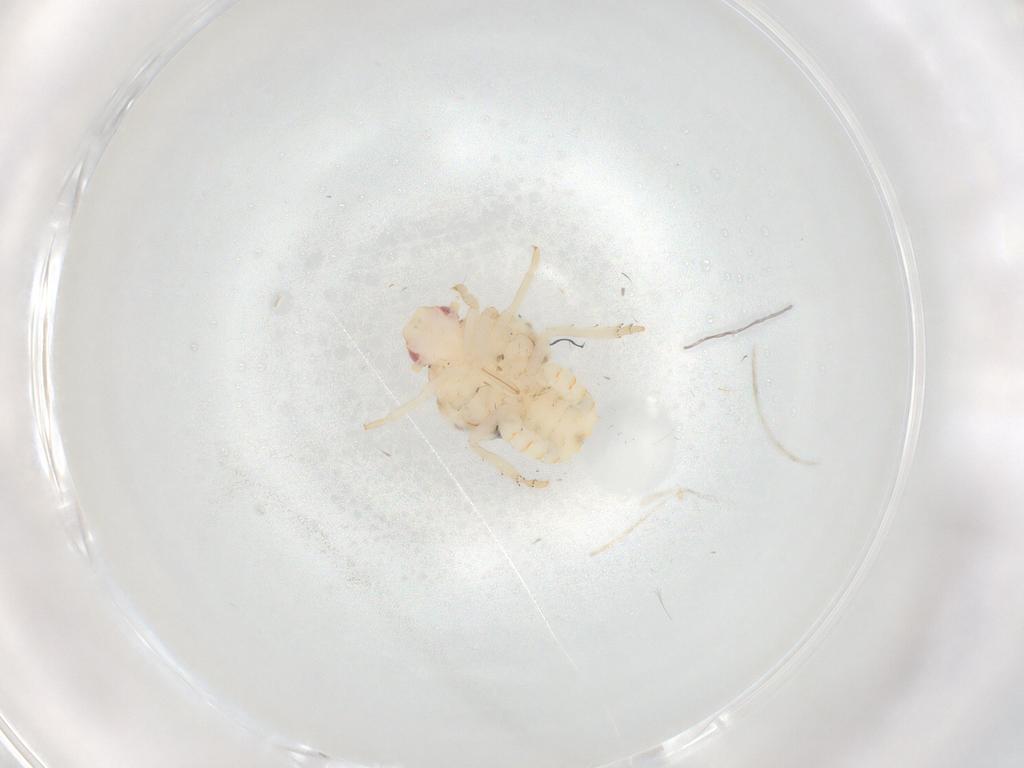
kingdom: Animalia
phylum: Arthropoda
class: Insecta
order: Hemiptera
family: Flatidae
